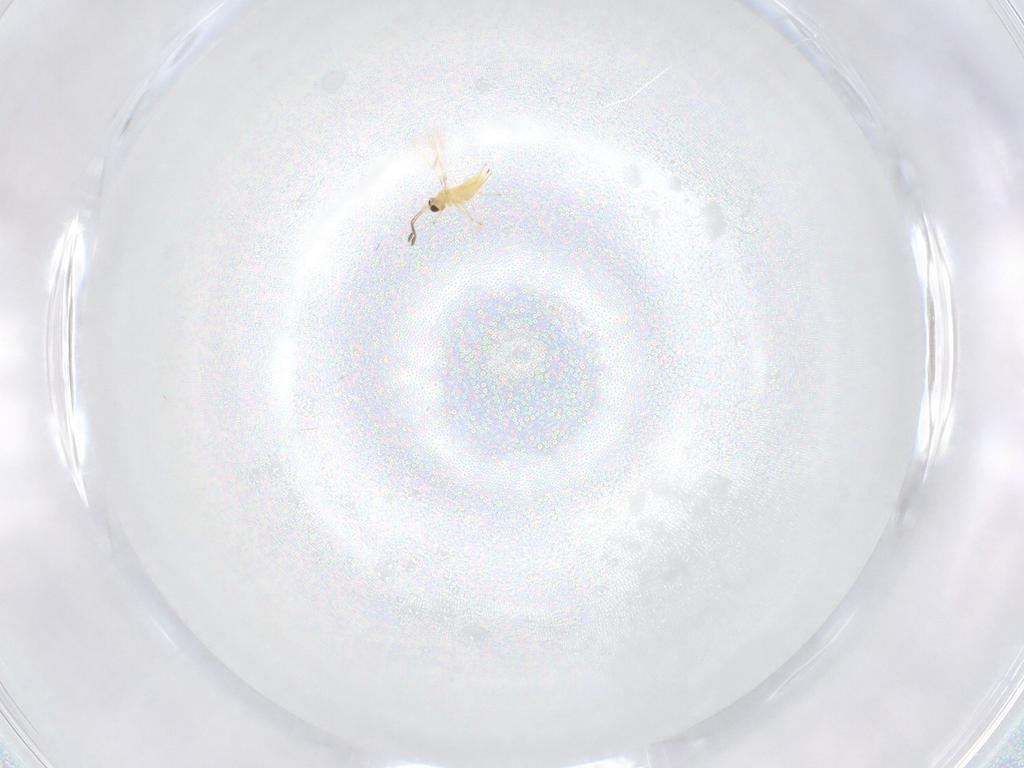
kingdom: Animalia
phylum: Arthropoda
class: Insecta
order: Hymenoptera
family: Mymaridae
